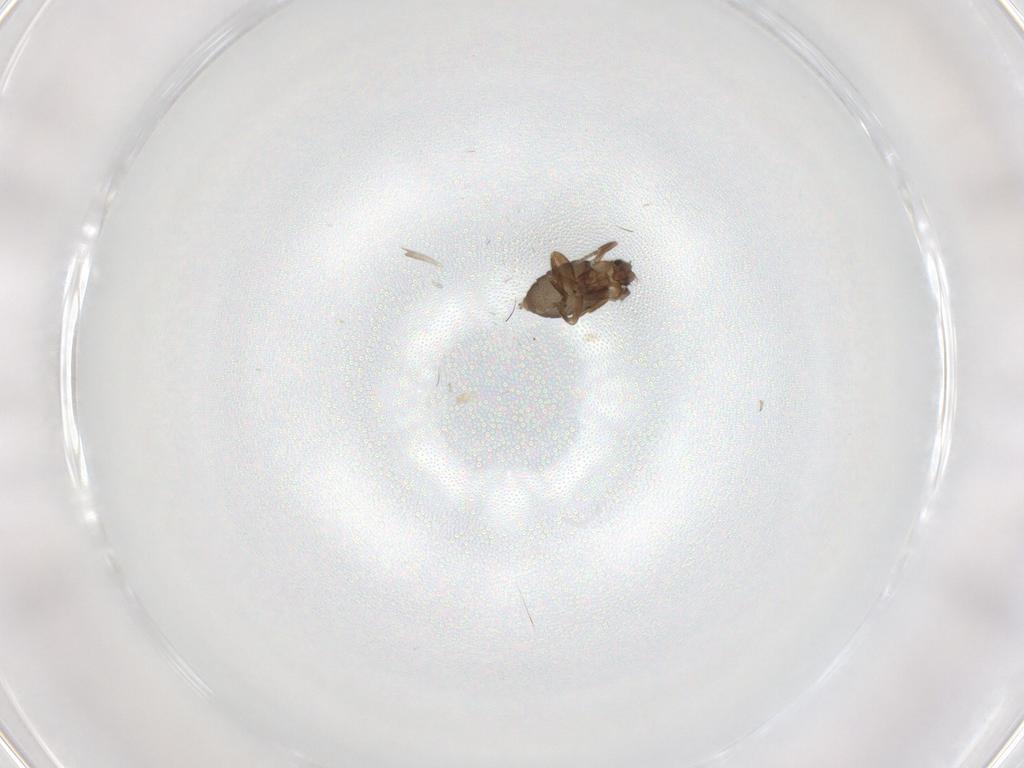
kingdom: Animalia
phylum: Arthropoda
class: Insecta
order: Diptera
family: Phoridae
